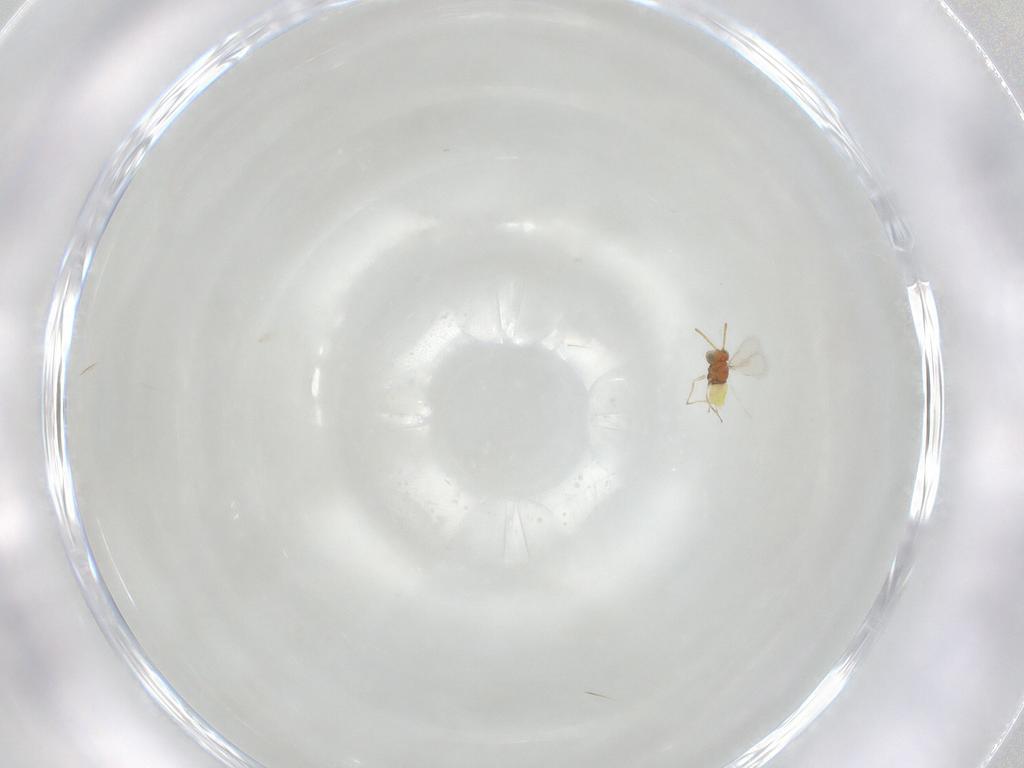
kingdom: Animalia
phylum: Arthropoda
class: Insecta
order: Hymenoptera
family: Aphelinidae
